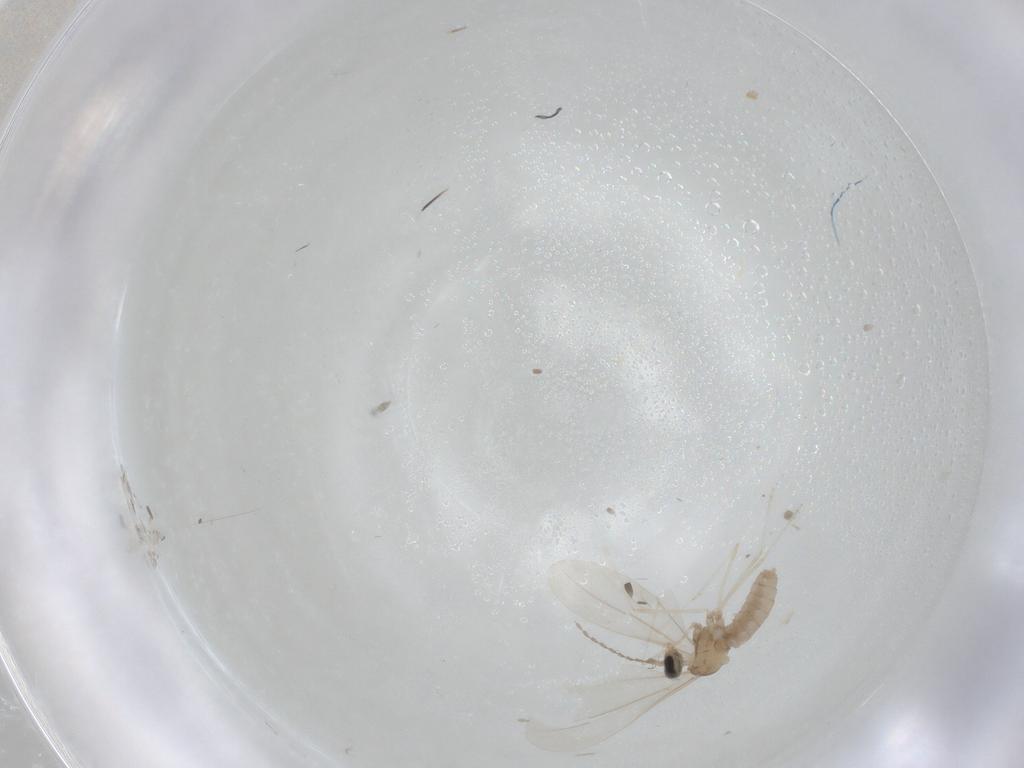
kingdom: Animalia
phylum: Arthropoda
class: Insecta
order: Diptera
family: Cecidomyiidae
